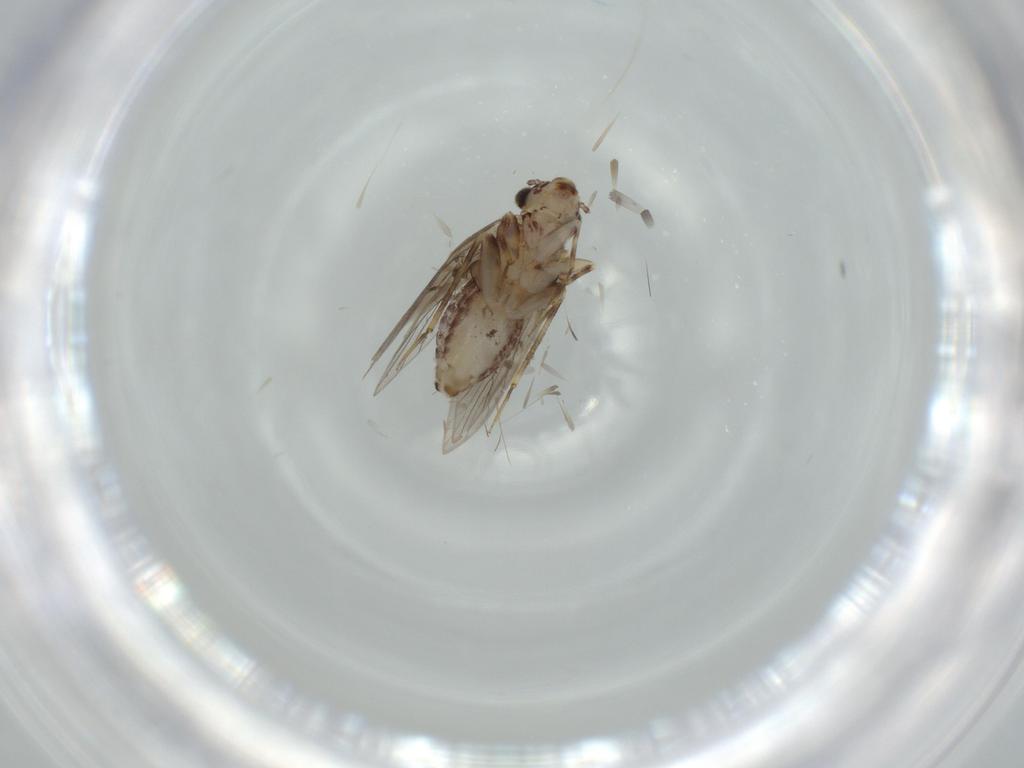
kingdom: Animalia
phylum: Arthropoda
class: Insecta
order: Psocodea
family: Lepidopsocidae
